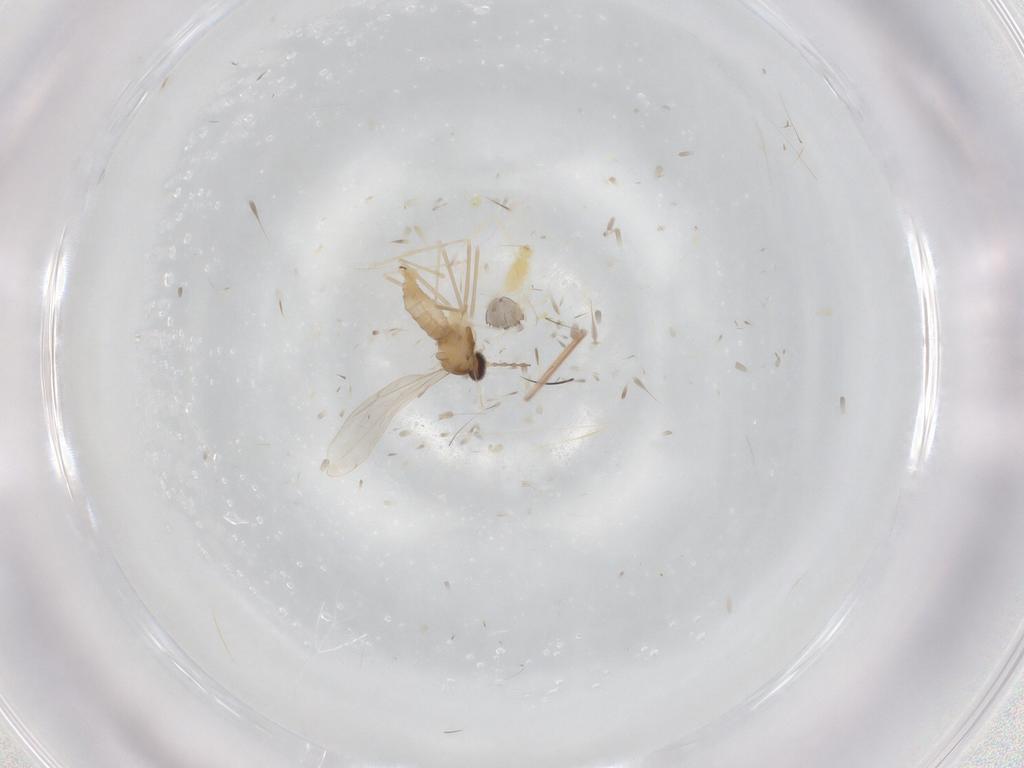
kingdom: Animalia
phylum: Arthropoda
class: Insecta
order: Diptera
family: Cecidomyiidae
